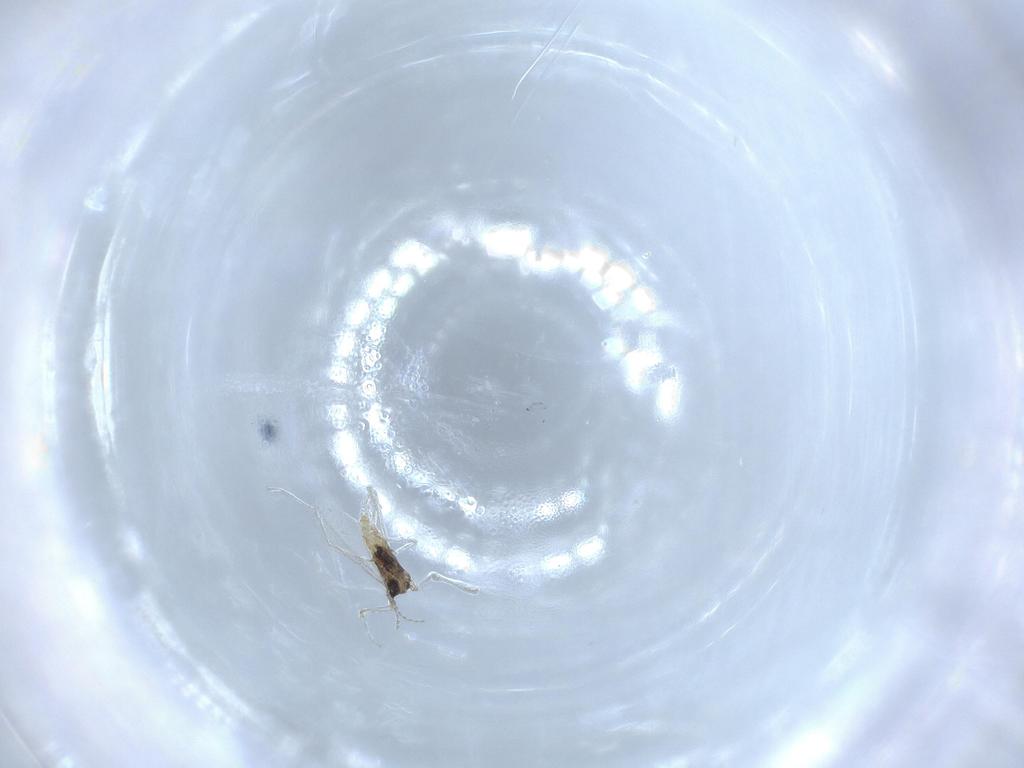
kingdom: Animalia
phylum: Arthropoda
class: Insecta
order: Diptera
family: Cecidomyiidae
